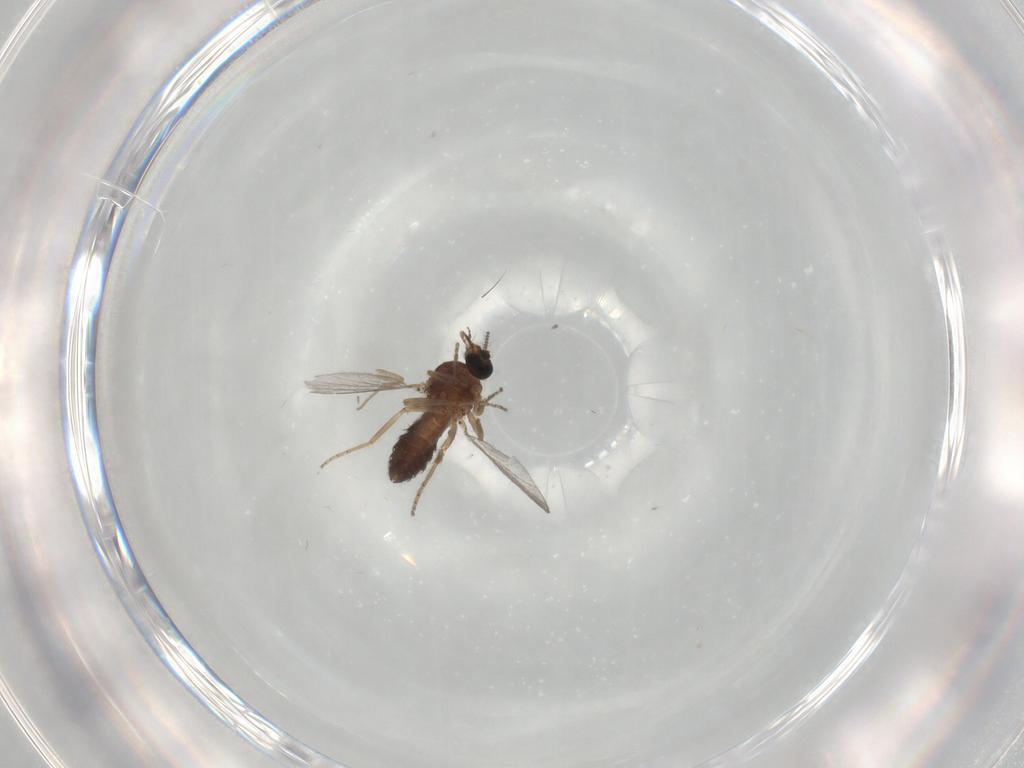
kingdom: Animalia
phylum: Arthropoda
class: Insecta
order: Diptera
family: Ceratopogonidae
